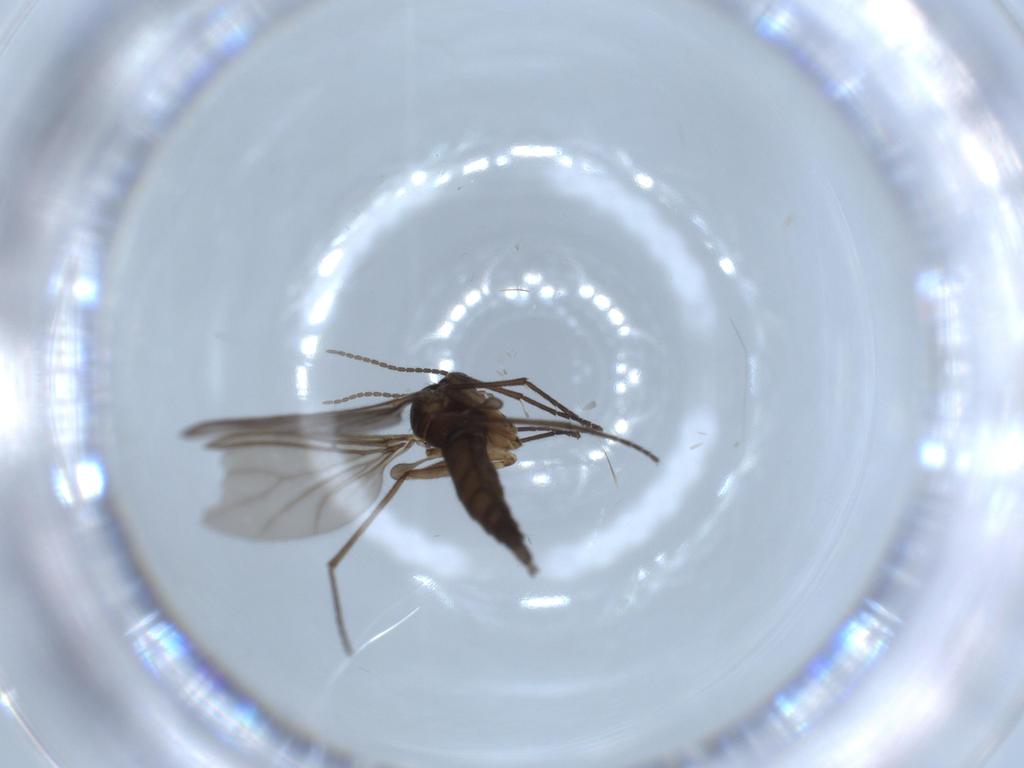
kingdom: Animalia
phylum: Arthropoda
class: Insecta
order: Diptera
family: Sciaridae
